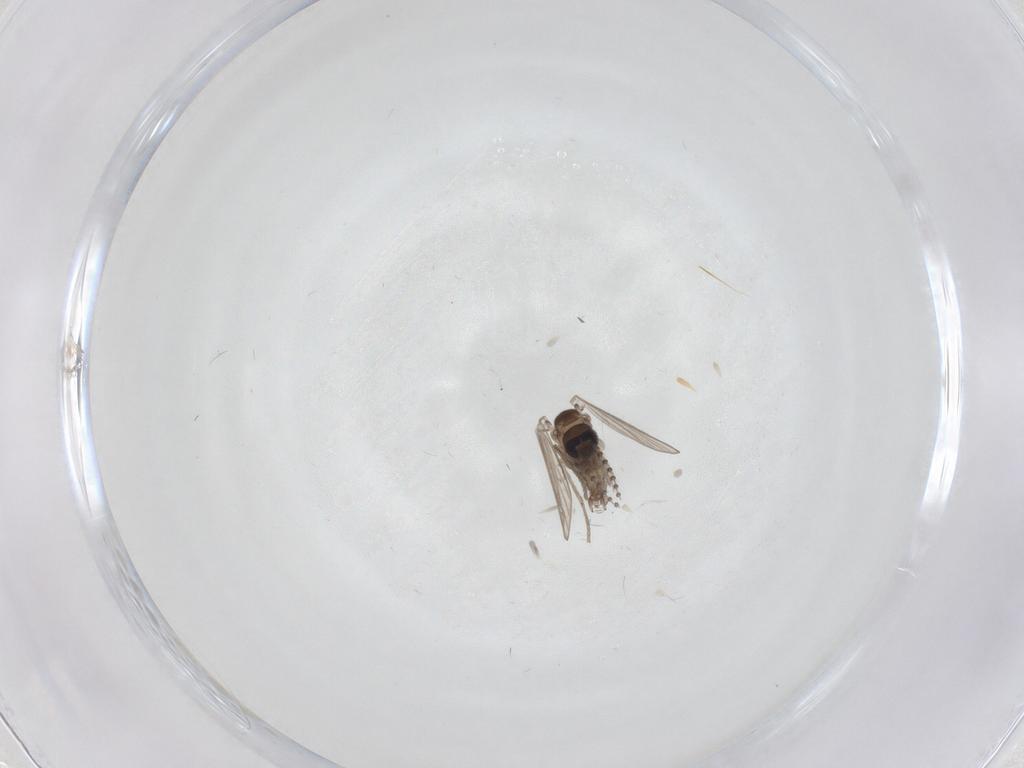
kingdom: Animalia
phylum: Arthropoda
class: Insecta
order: Diptera
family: Psychodidae
